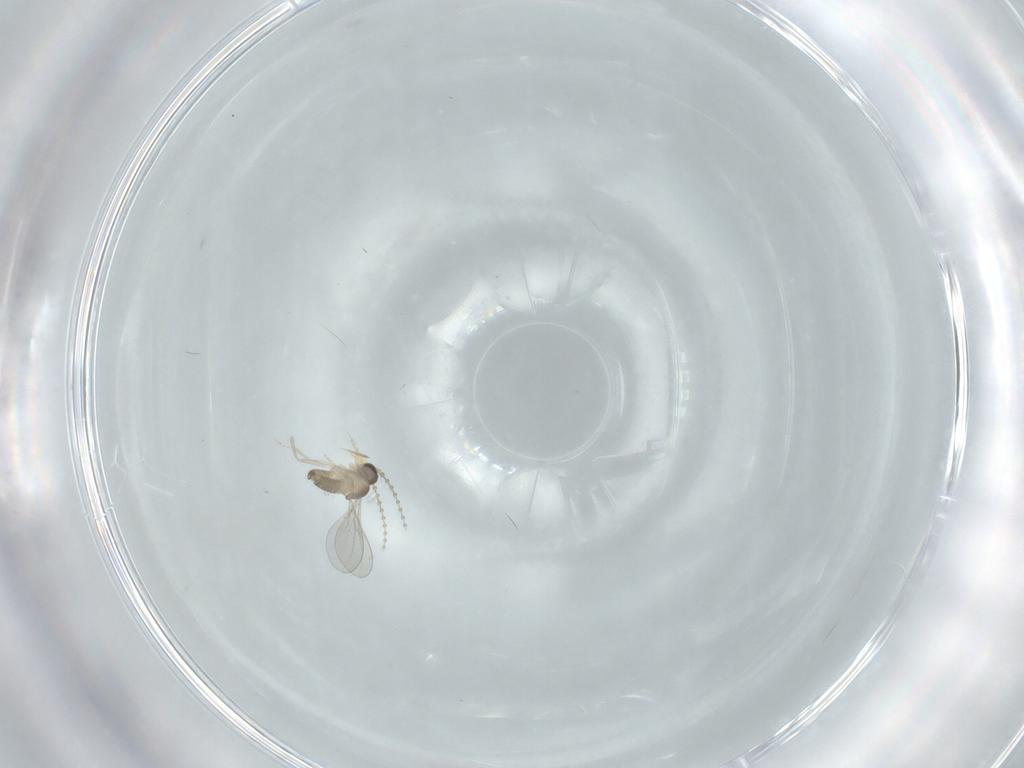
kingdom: Animalia
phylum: Arthropoda
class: Insecta
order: Diptera
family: Cecidomyiidae
